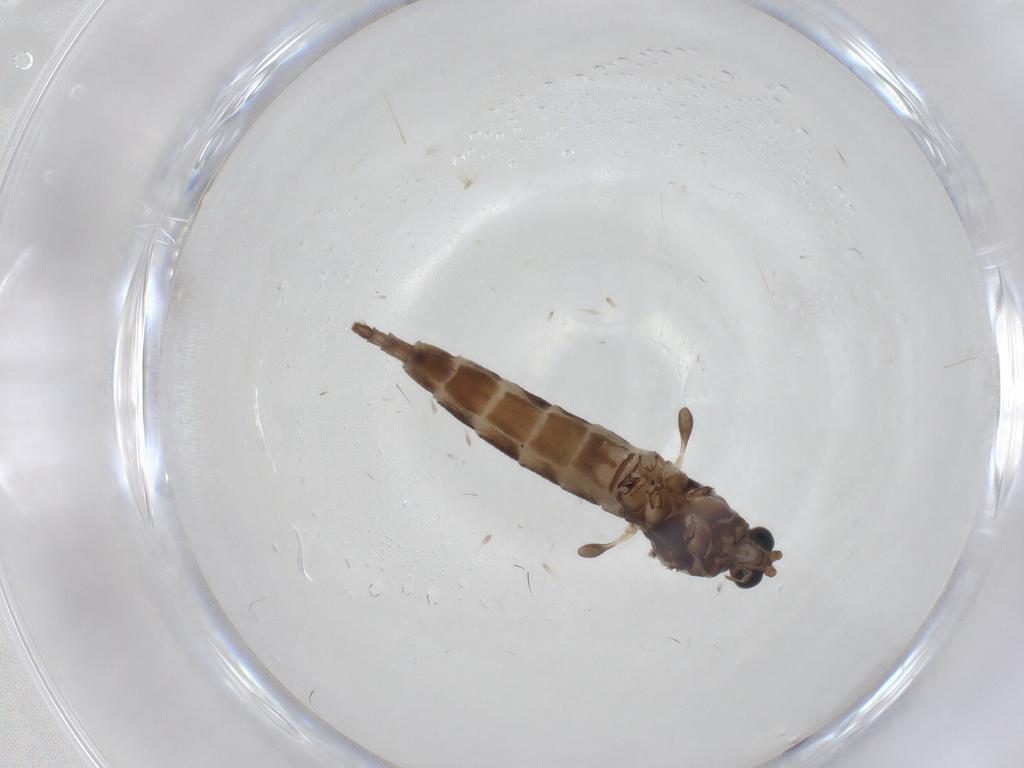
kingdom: Animalia
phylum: Arthropoda
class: Insecta
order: Diptera
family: Sciaridae
